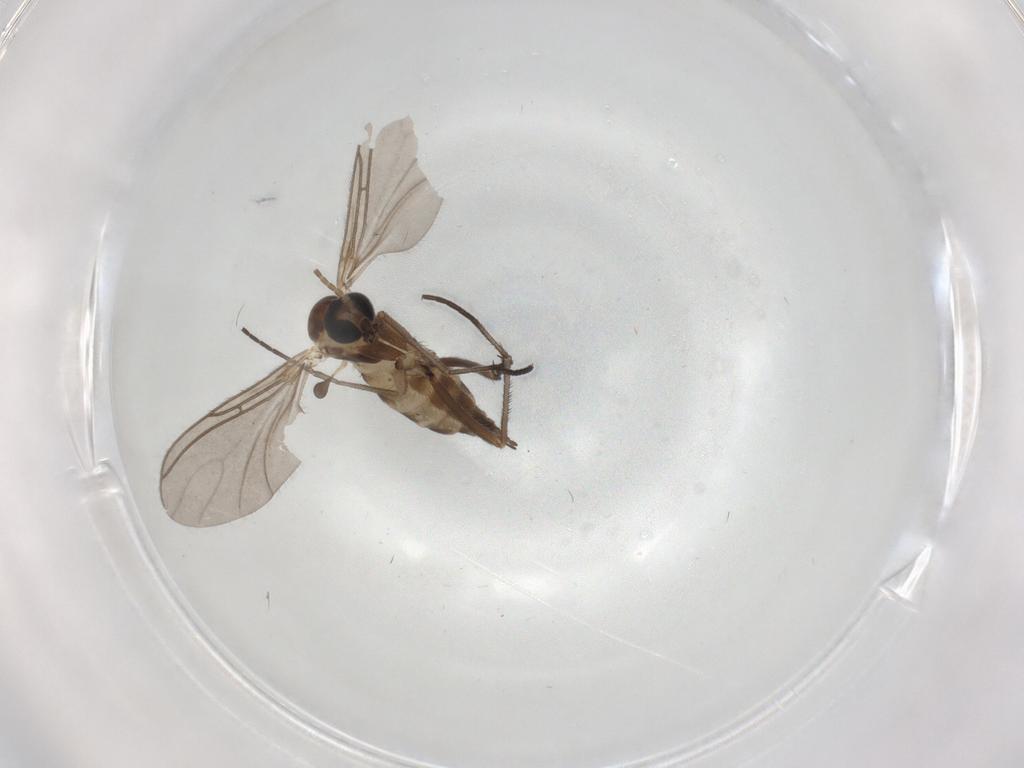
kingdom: Animalia
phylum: Arthropoda
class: Insecta
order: Diptera
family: Sciaridae
